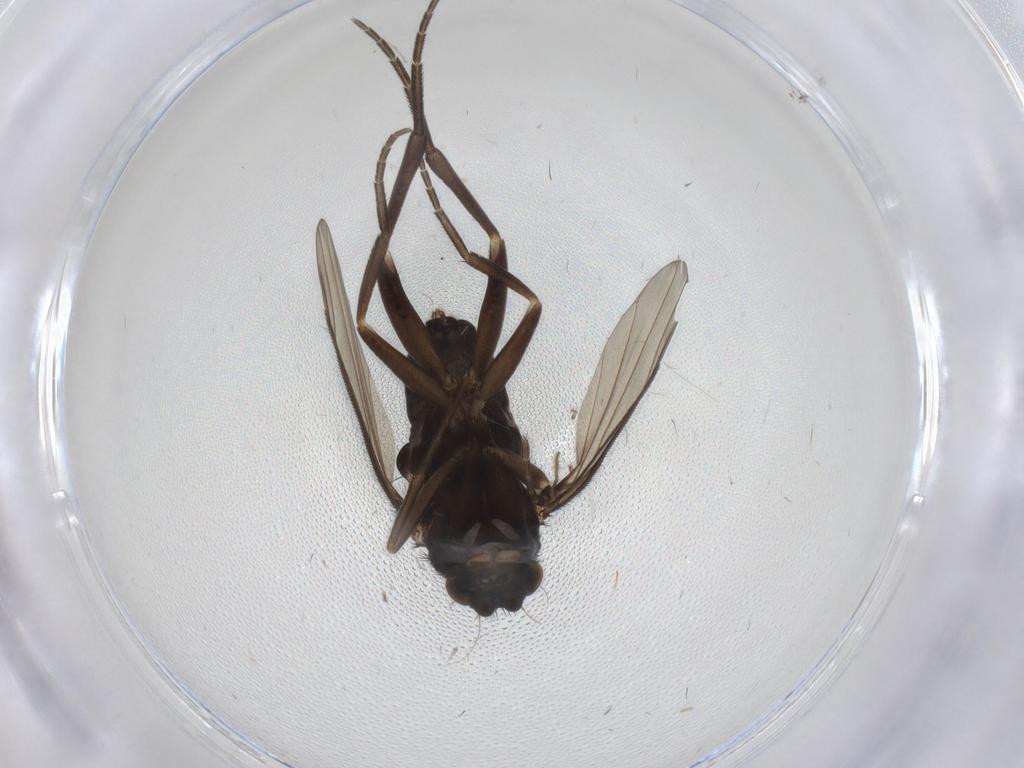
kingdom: Animalia
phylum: Arthropoda
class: Insecta
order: Diptera
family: Phoridae
